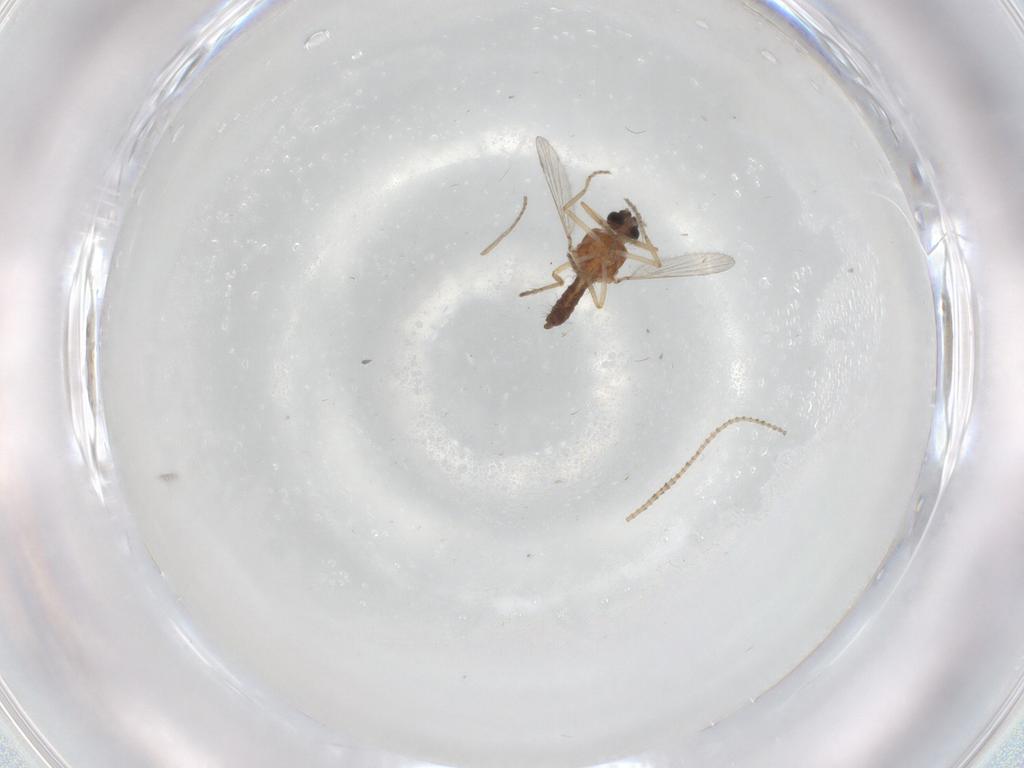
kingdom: Animalia
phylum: Arthropoda
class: Insecta
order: Diptera
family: Psychodidae
